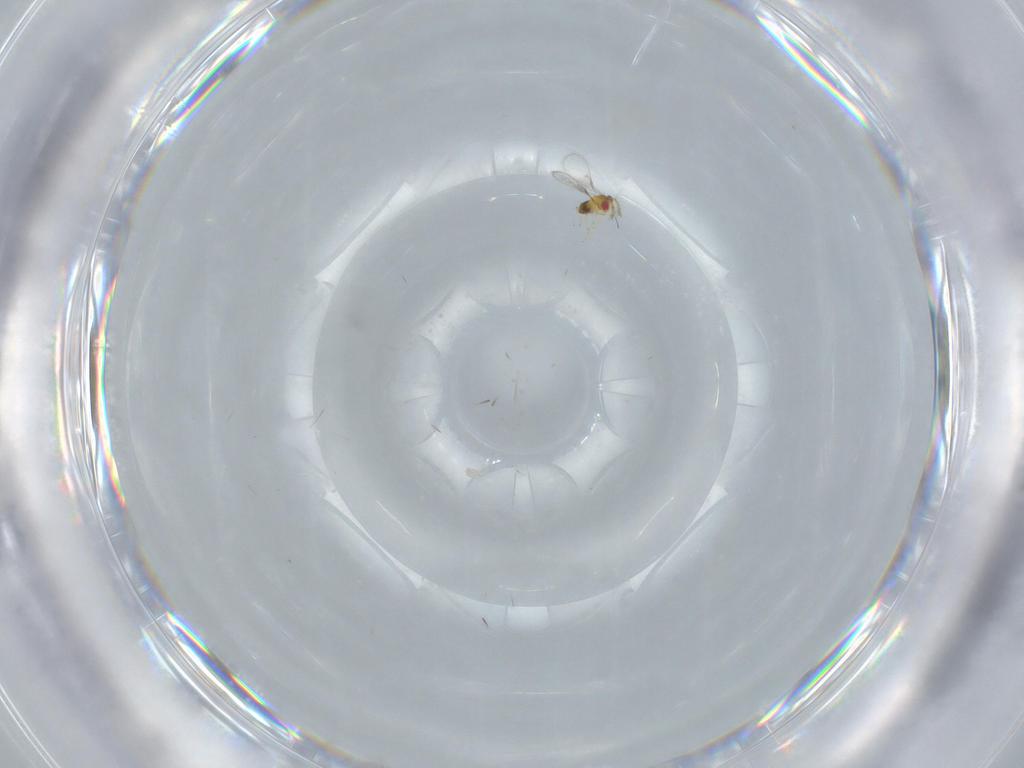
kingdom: Animalia
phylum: Arthropoda
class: Insecta
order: Hymenoptera
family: Trichogrammatidae
